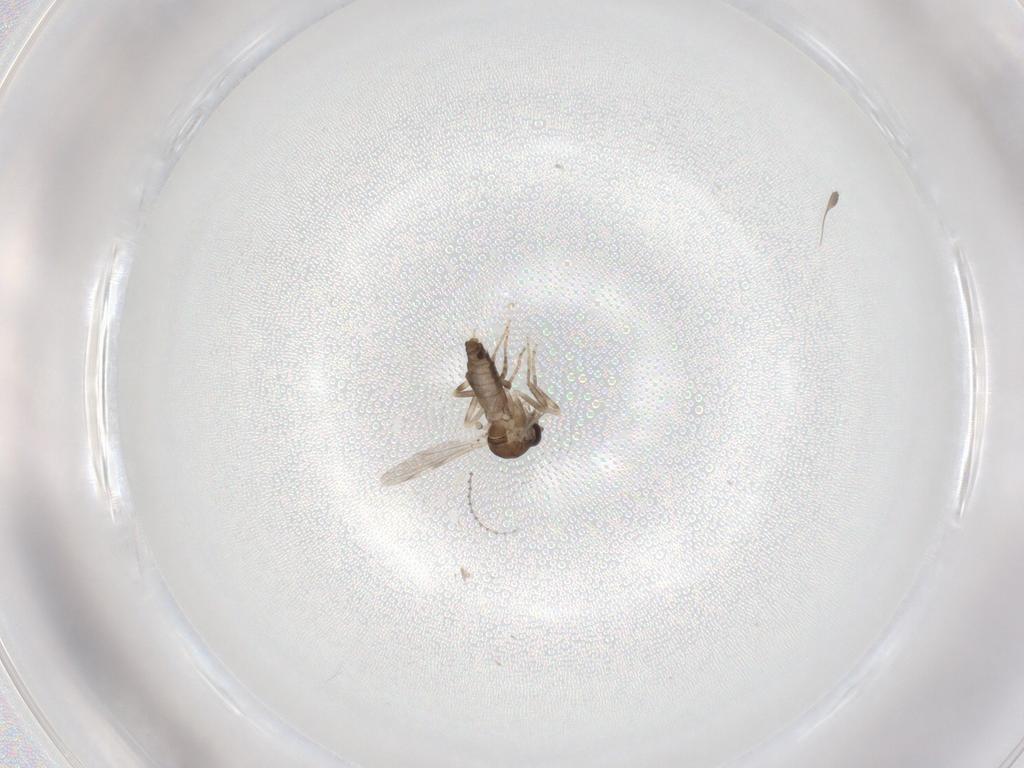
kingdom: Animalia
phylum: Arthropoda
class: Insecta
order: Diptera
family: Ceratopogonidae
